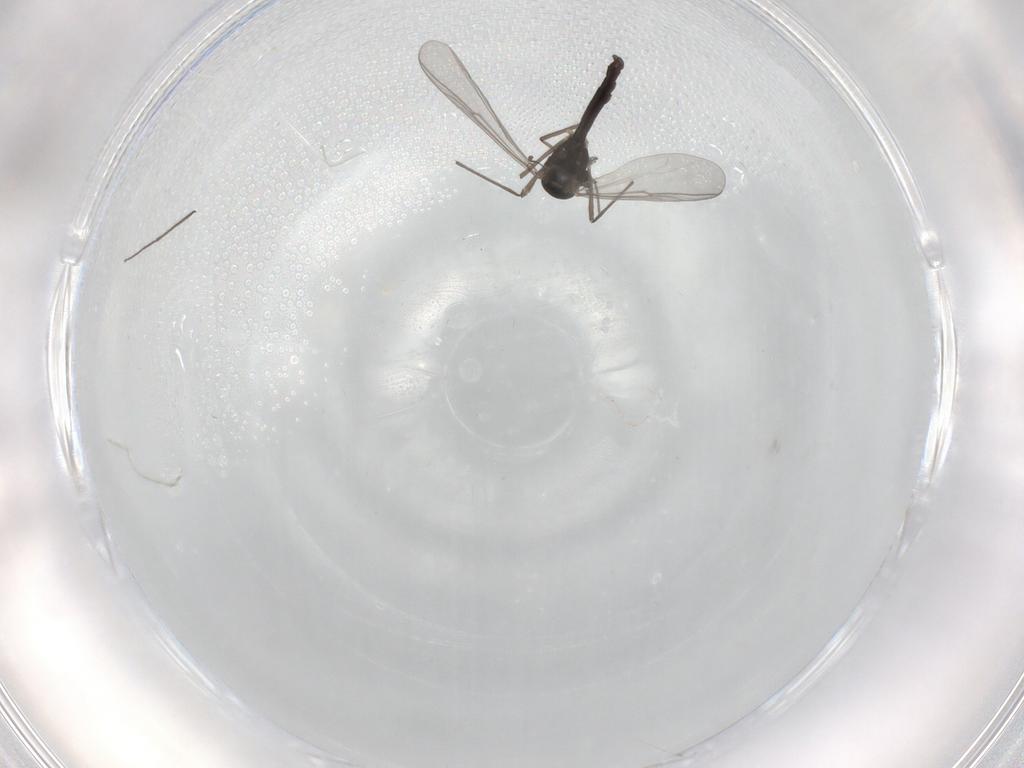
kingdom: Animalia
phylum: Arthropoda
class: Insecta
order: Diptera
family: Chironomidae
